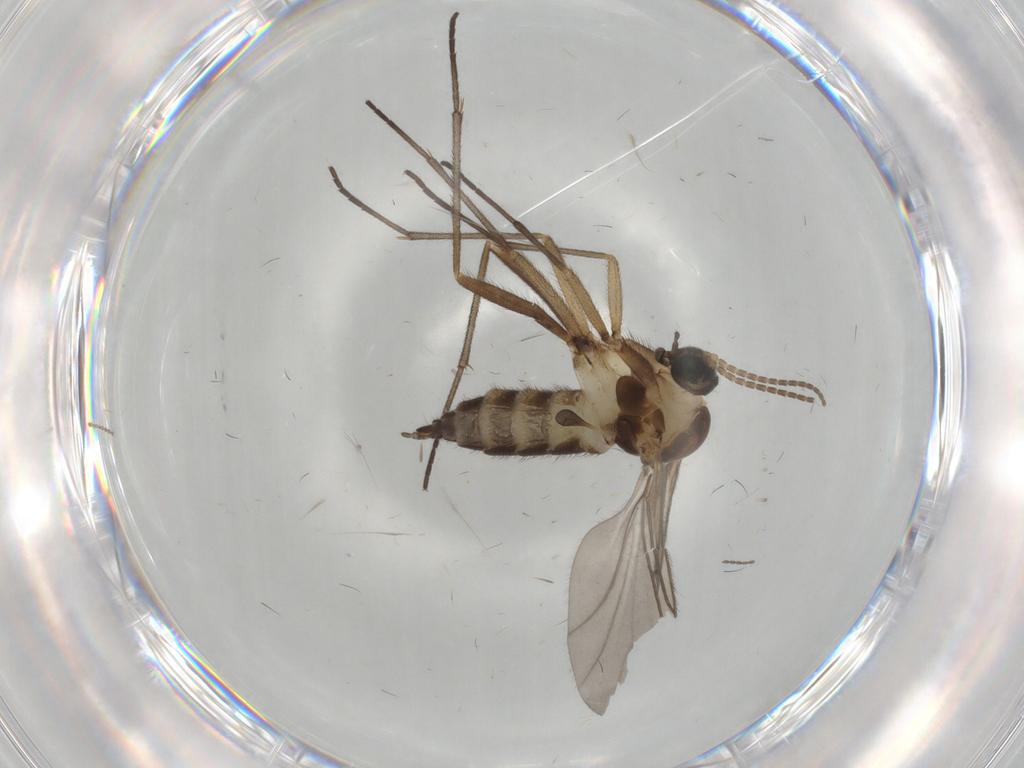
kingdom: Animalia
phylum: Arthropoda
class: Insecta
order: Diptera
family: Sciaridae
